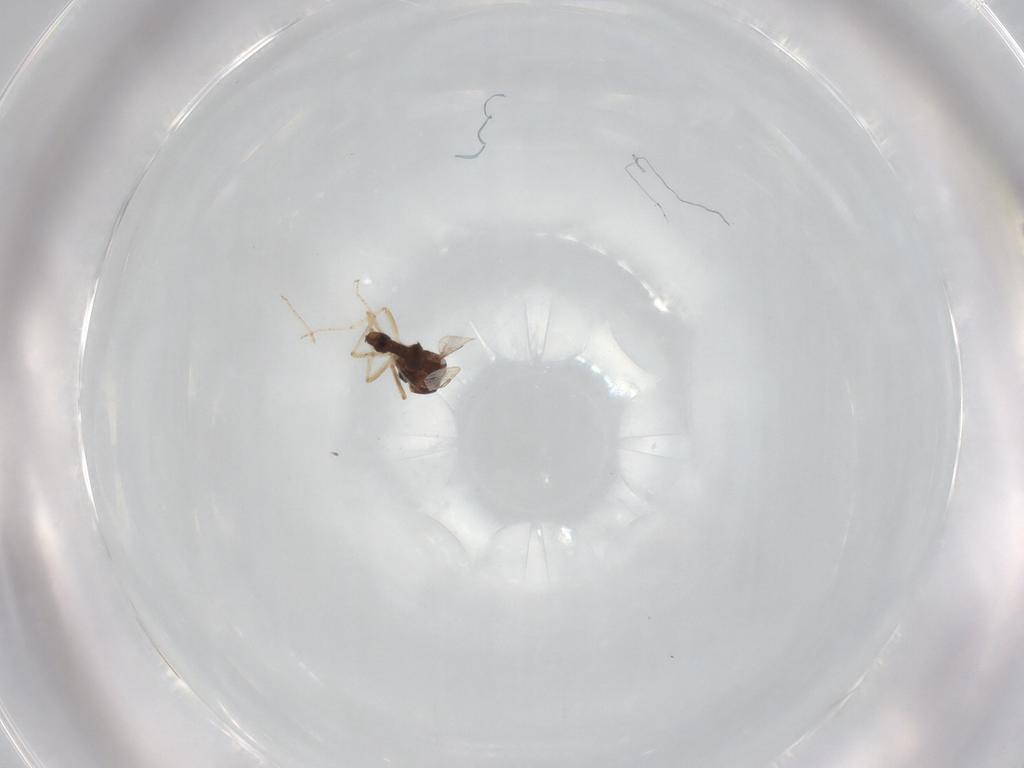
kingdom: Animalia
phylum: Arthropoda
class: Insecta
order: Diptera
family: Ceratopogonidae
